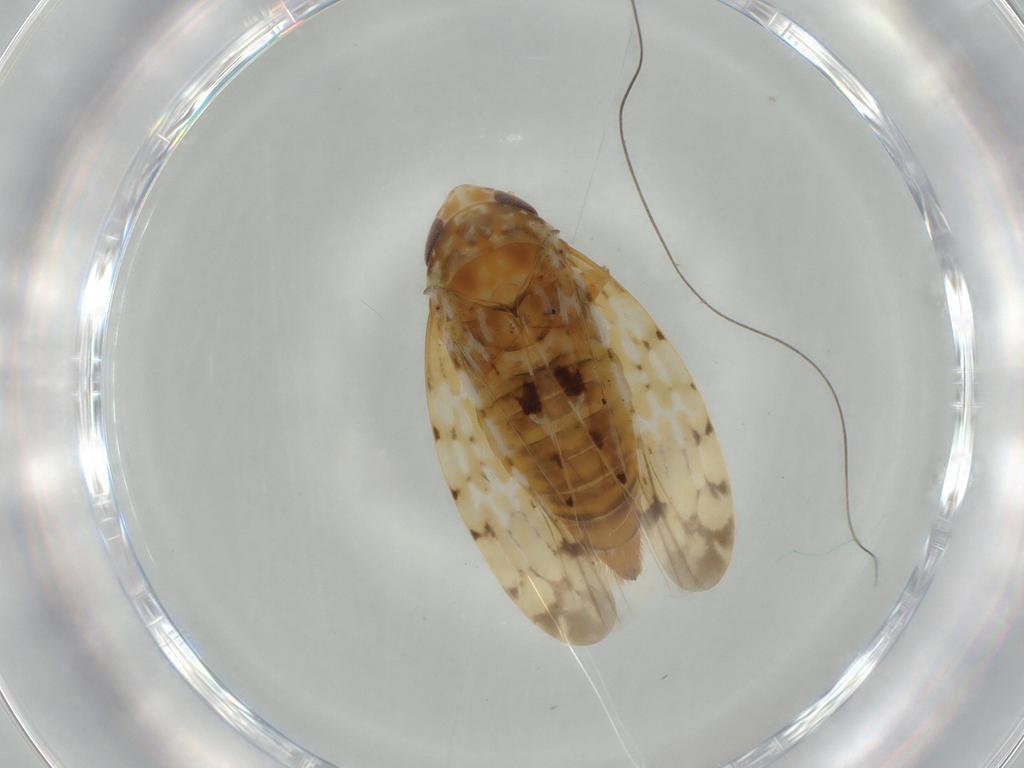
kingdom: Animalia
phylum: Arthropoda
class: Insecta
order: Hemiptera
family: Cicadellidae
